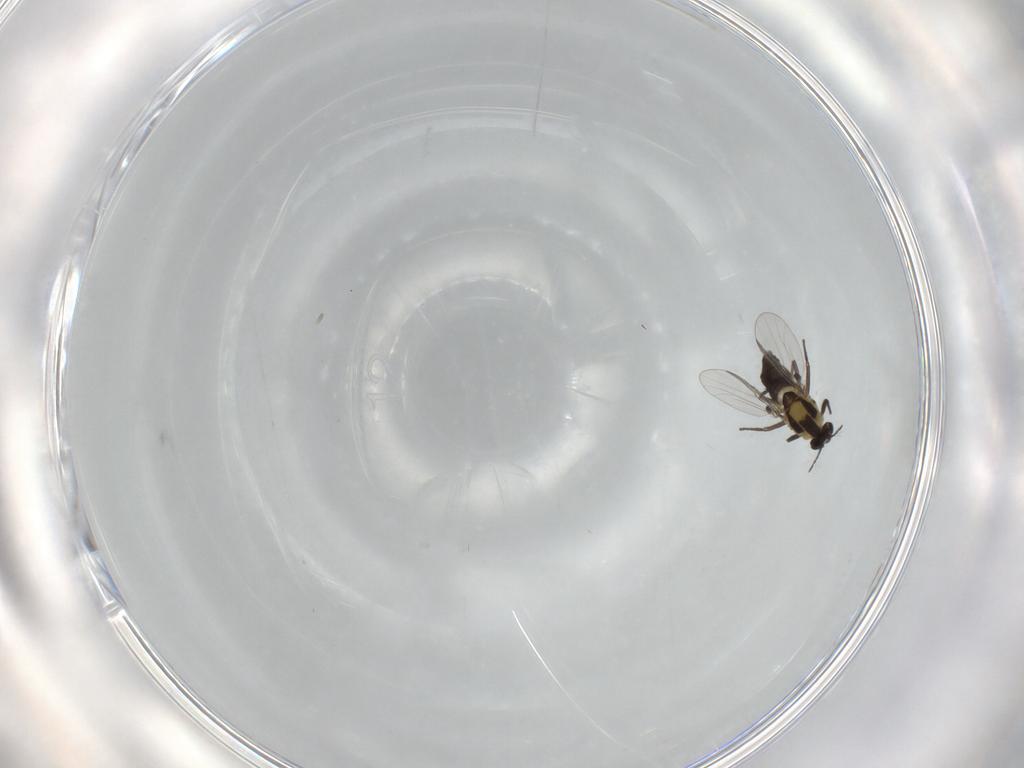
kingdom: Animalia
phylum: Arthropoda
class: Insecta
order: Diptera
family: Chironomidae
